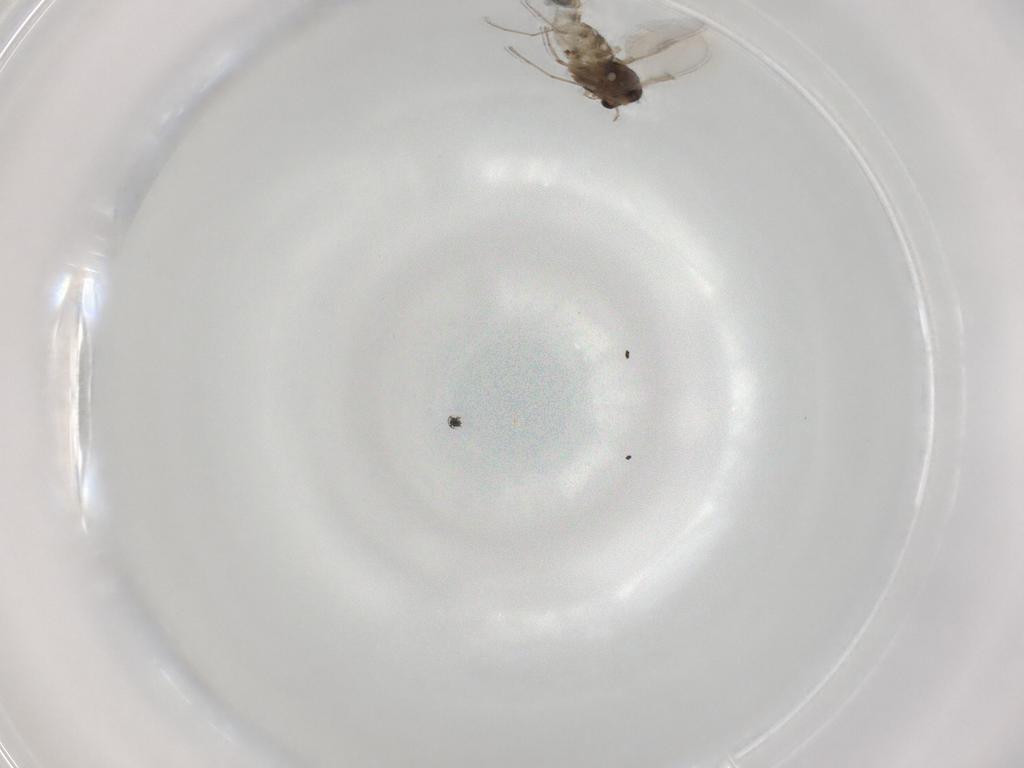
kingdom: Animalia
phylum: Arthropoda
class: Insecta
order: Diptera
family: Chironomidae
